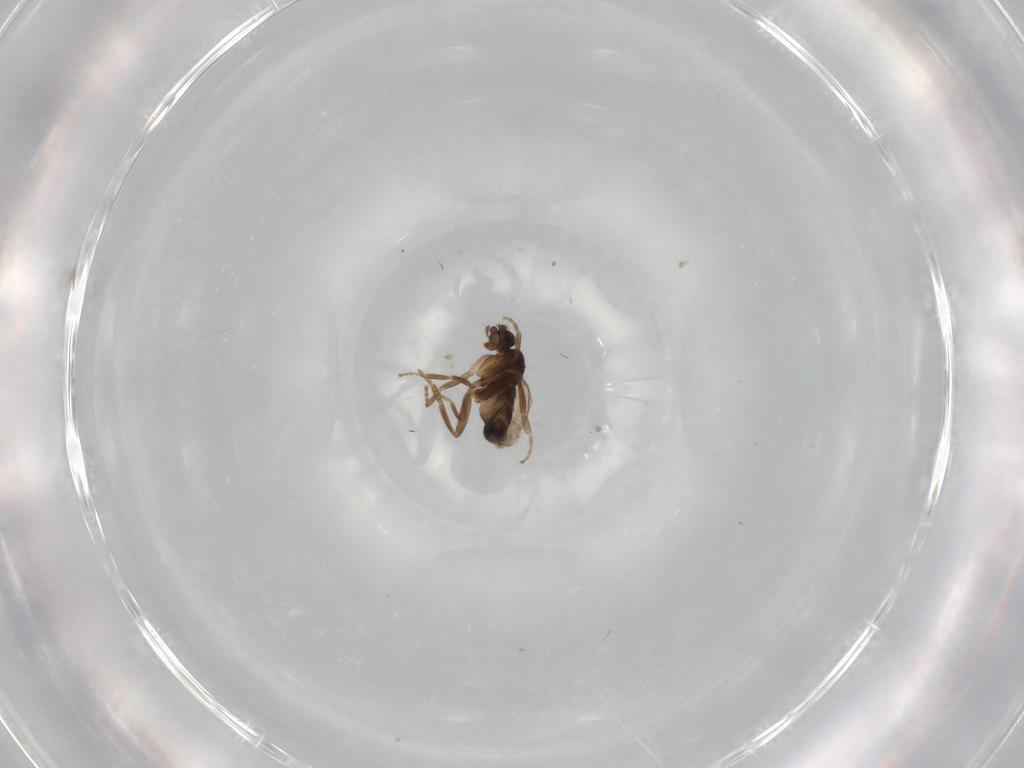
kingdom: Animalia
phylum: Arthropoda
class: Insecta
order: Diptera
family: Phoridae
